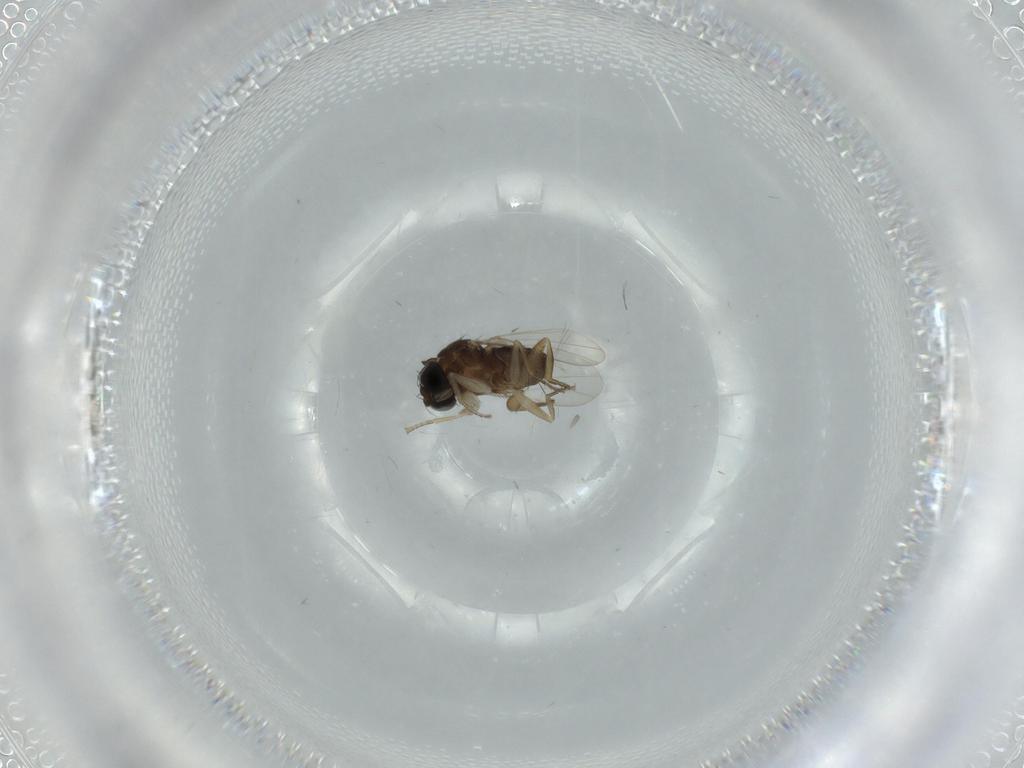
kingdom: Animalia
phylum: Arthropoda
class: Insecta
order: Diptera
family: Phoridae
